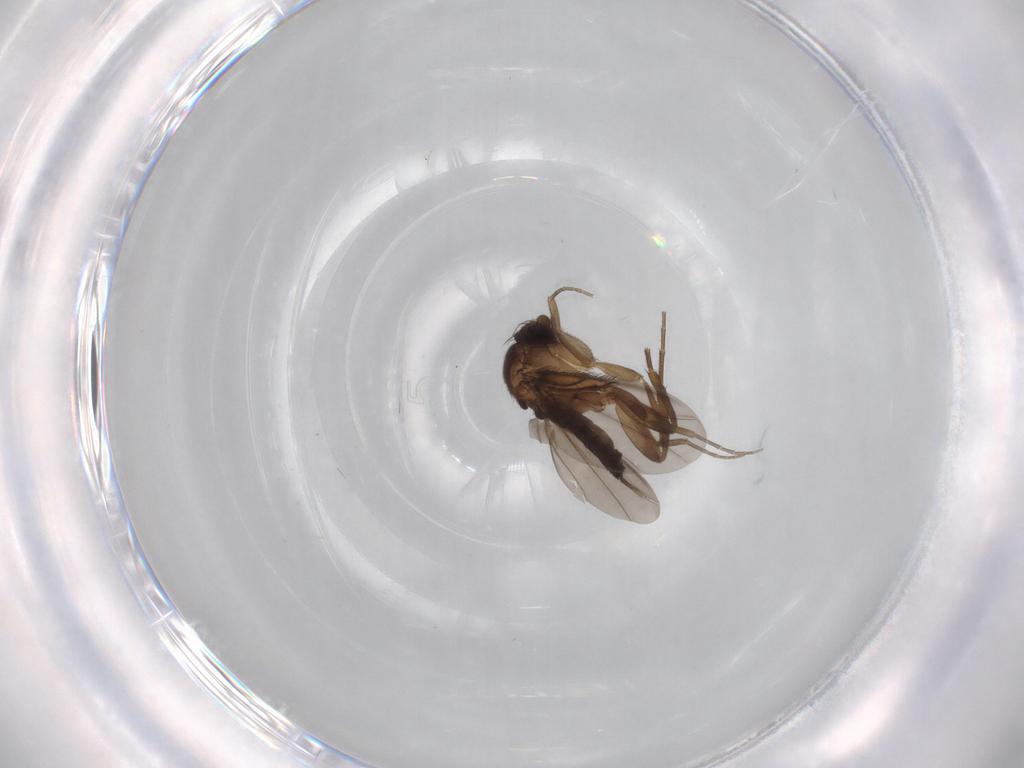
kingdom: Animalia
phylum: Arthropoda
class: Insecta
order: Diptera
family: Phoridae
